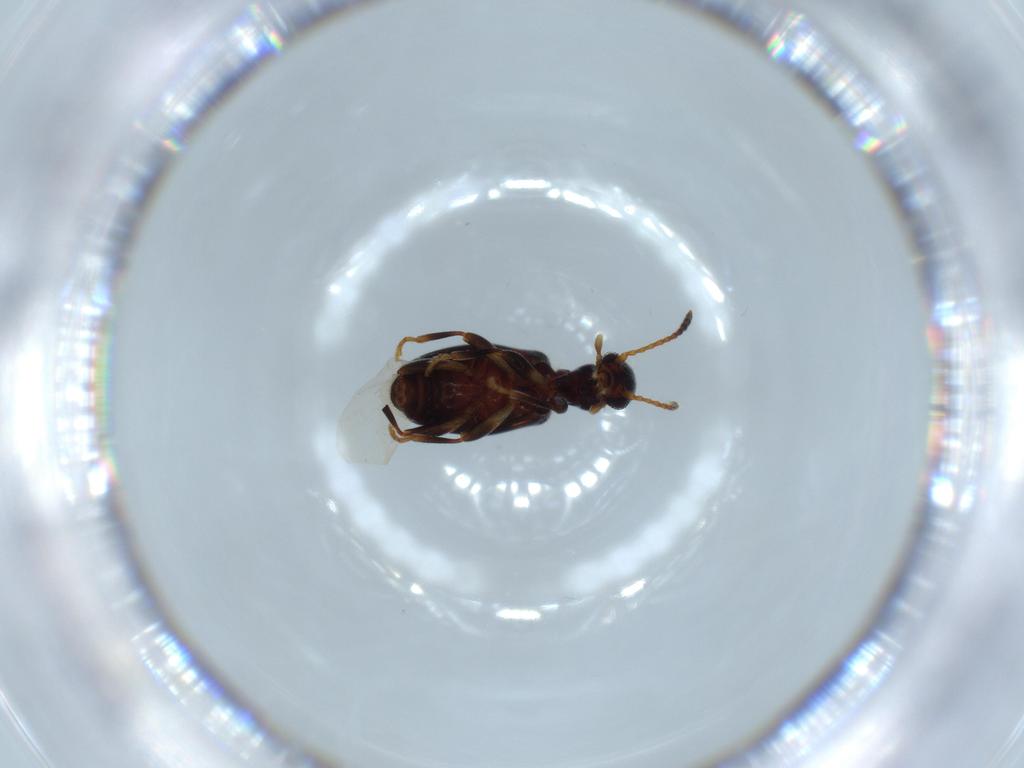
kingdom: Animalia
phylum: Arthropoda
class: Insecta
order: Coleoptera
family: Anthicidae
